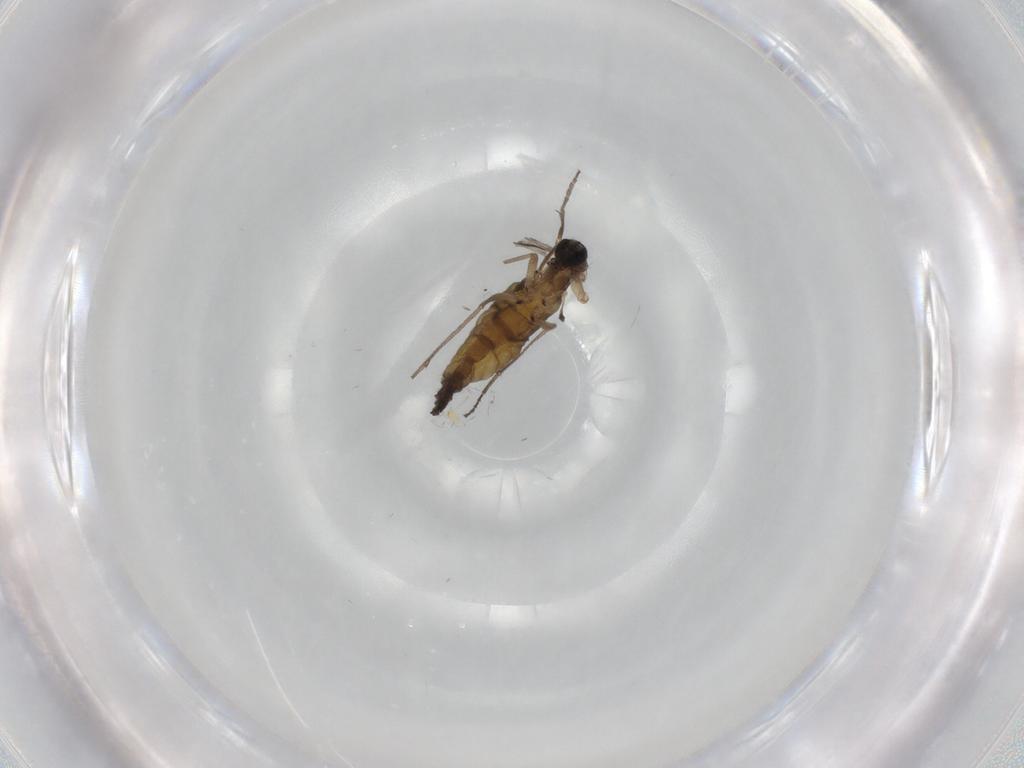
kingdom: Animalia
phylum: Arthropoda
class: Insecta
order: Diptera
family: Sciaridae
